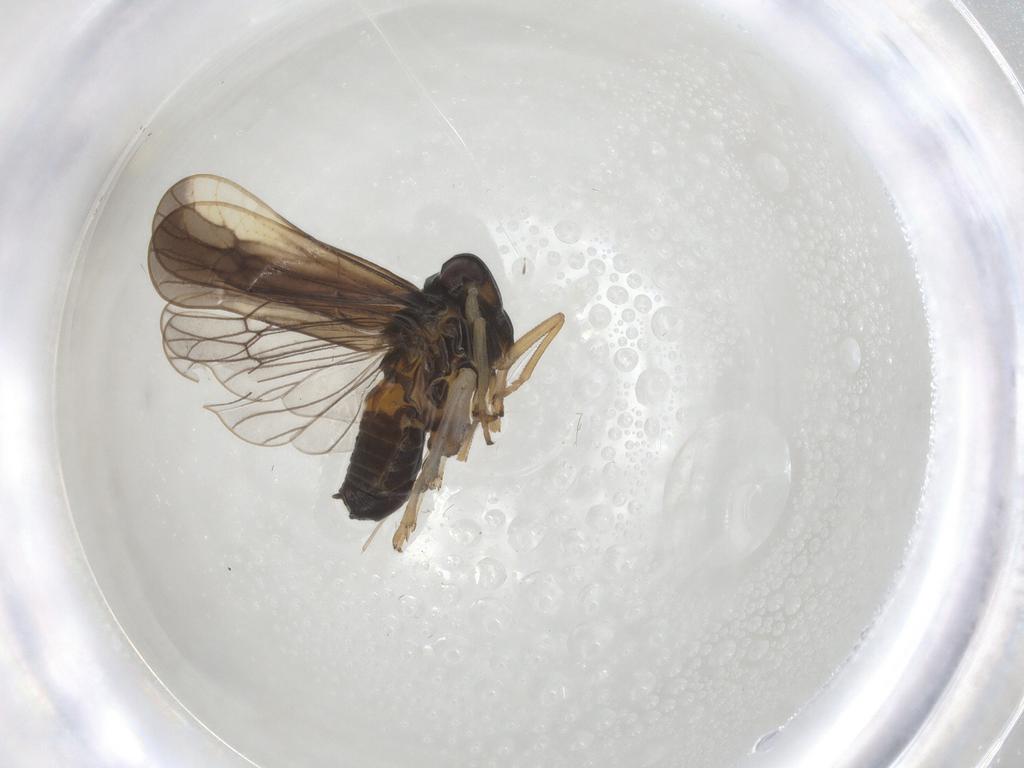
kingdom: Animalia
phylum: Arthropoda
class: Insecta
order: Hemiptera
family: Delphacidae
